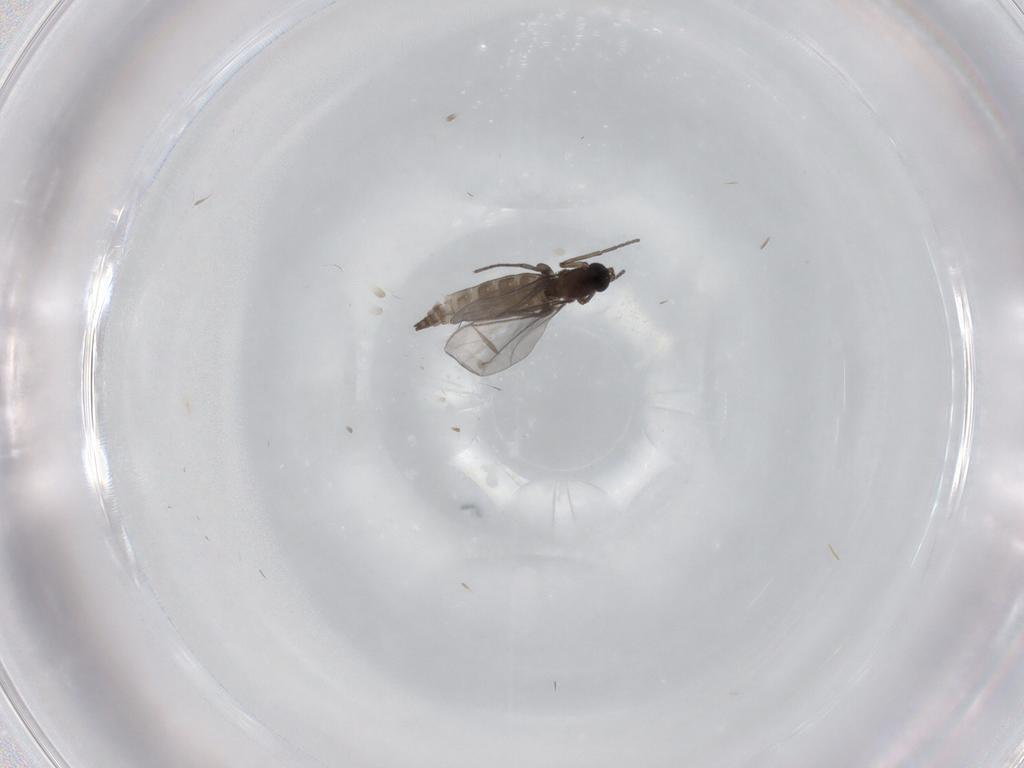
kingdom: Animalia
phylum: Arthropoda
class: Insecta
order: Diptera
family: Sciaridae
